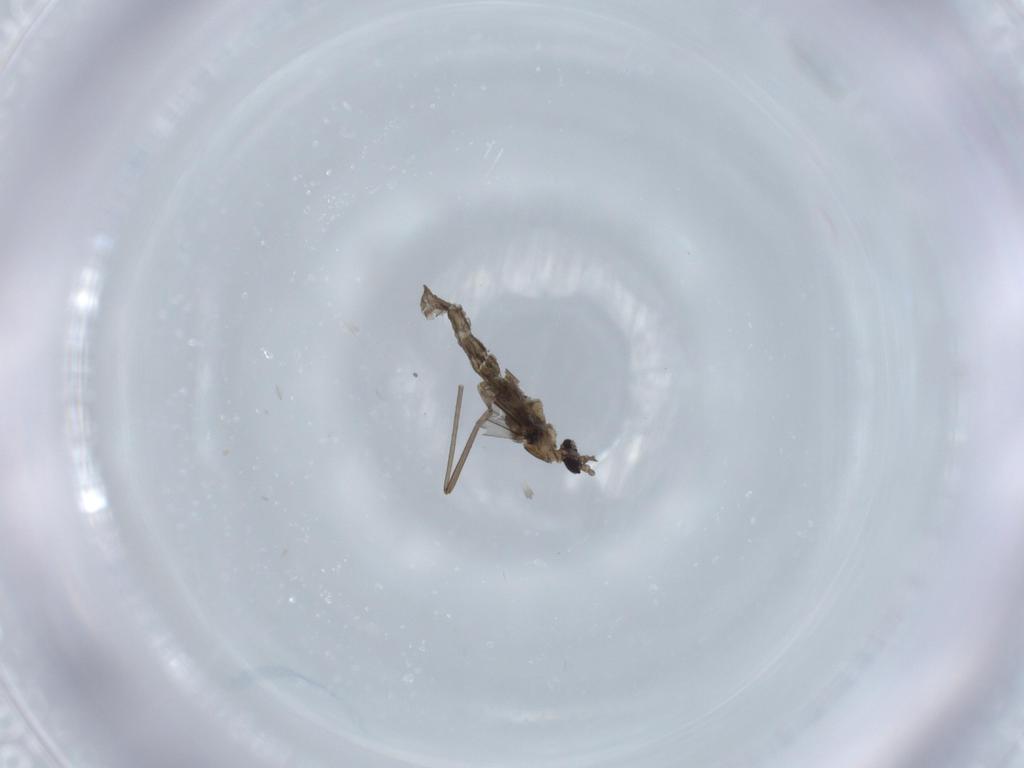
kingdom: Animalia
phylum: Arthropoda
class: Insecta
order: Diptera
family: Cecidomyiidae
